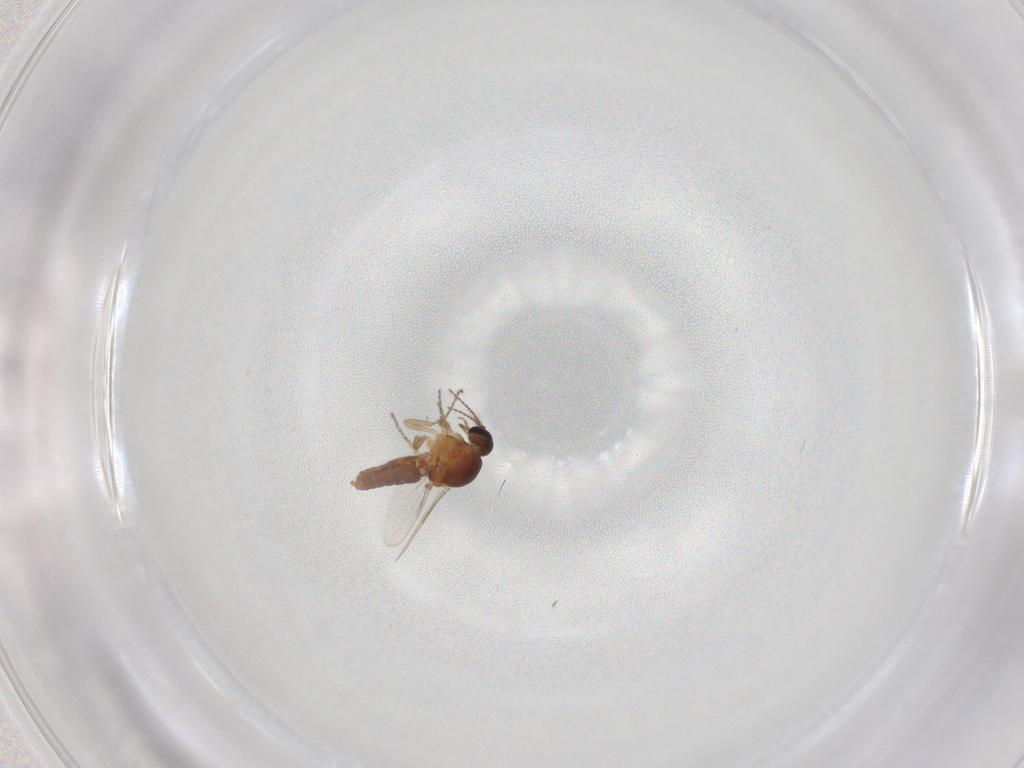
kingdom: Animalia
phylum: Arthropoda
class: Insecta
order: Diptera
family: Ceratopogonidae
